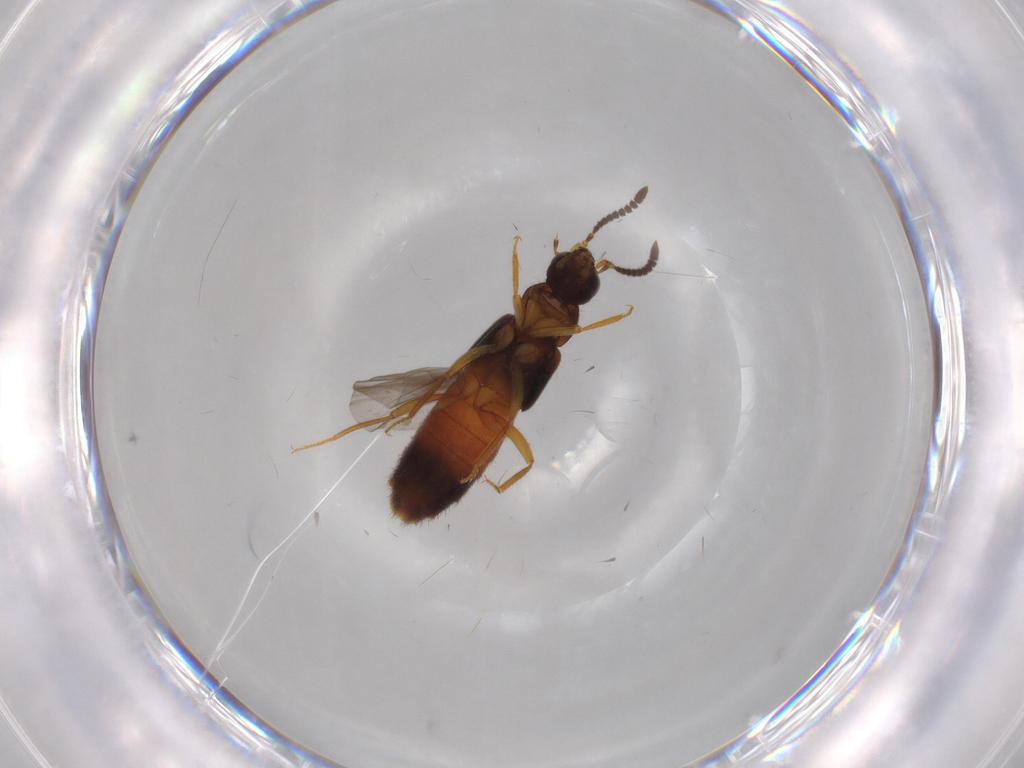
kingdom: Animalia
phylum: Arthropoda
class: Insecta
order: Coleoptera
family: Staphylinidae
